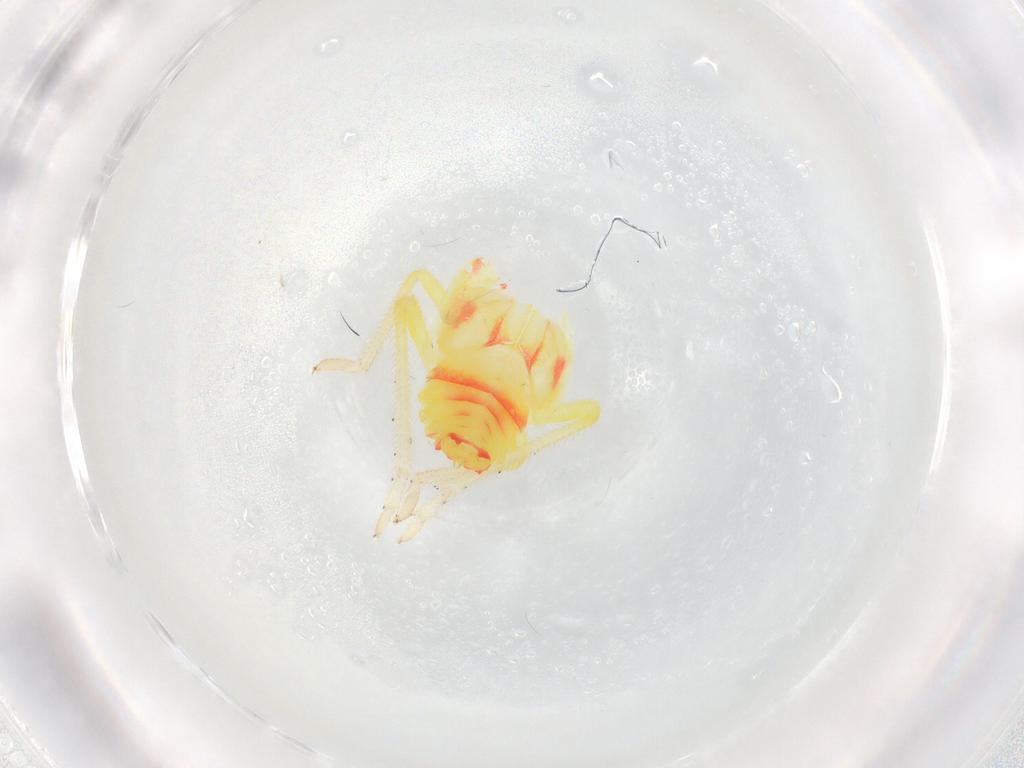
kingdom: Animalia
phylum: Arthropoda
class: Insecta
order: Hemiptera
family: Tropiduchidae
